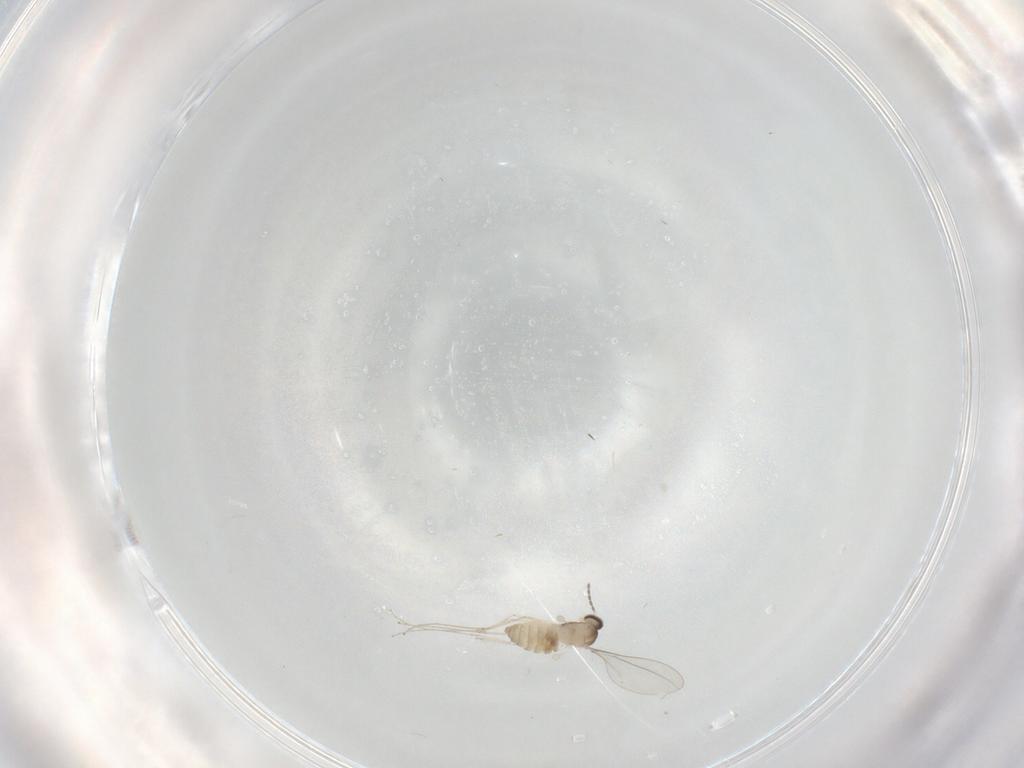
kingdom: Animalia
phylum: Arthropoda
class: Insecta
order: Diptera
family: Cecidomyiidae
